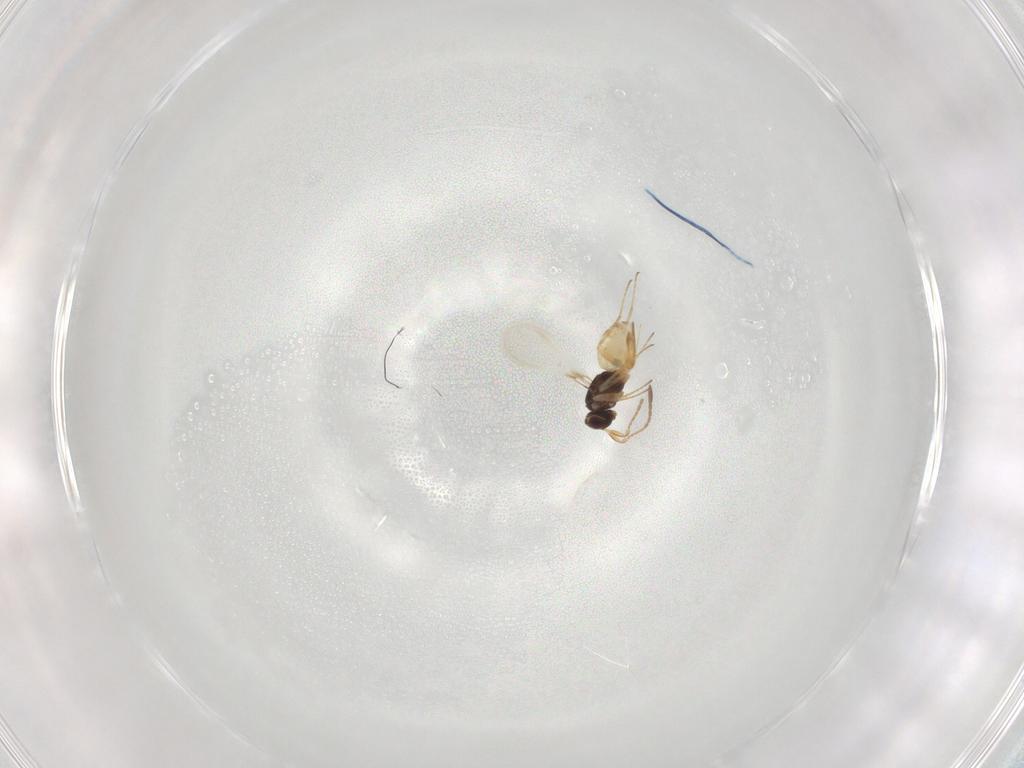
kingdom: Animalia
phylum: Arthropoda
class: Insecta
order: Hymenoptera
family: Mymaridae
